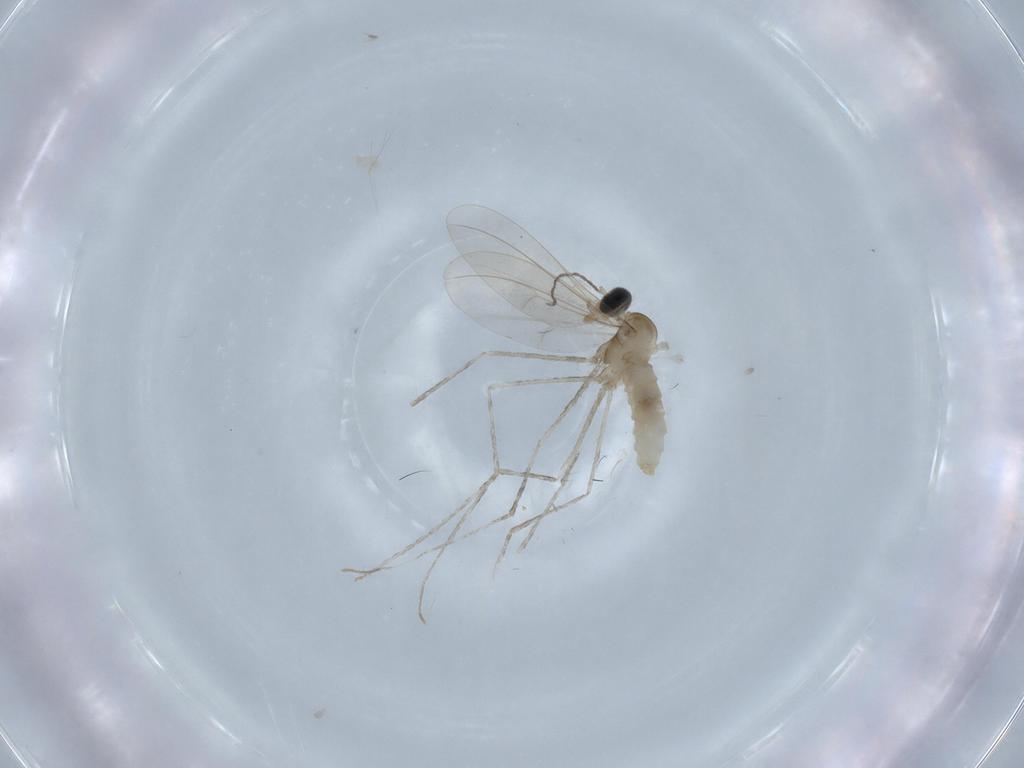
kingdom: Animalia
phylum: Arthropoda
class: Insecta
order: Diptera
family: Chironomidae
